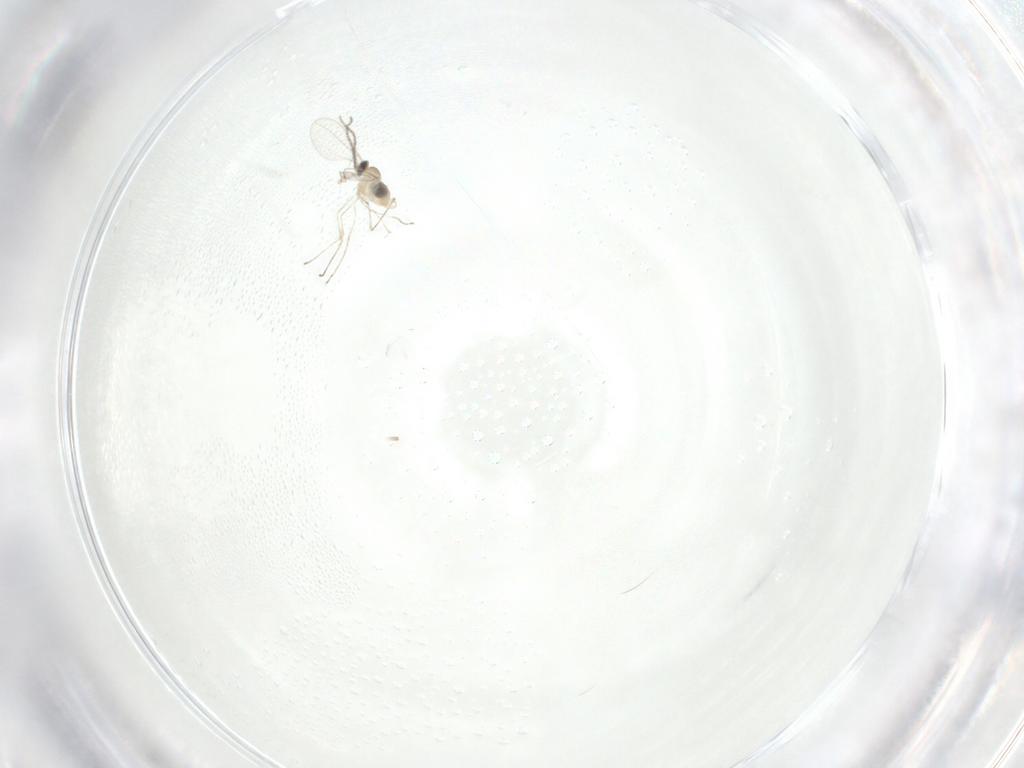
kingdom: Animalia
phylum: Arthropoda
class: Insecta
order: Diptera
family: Cecidomyiidae
